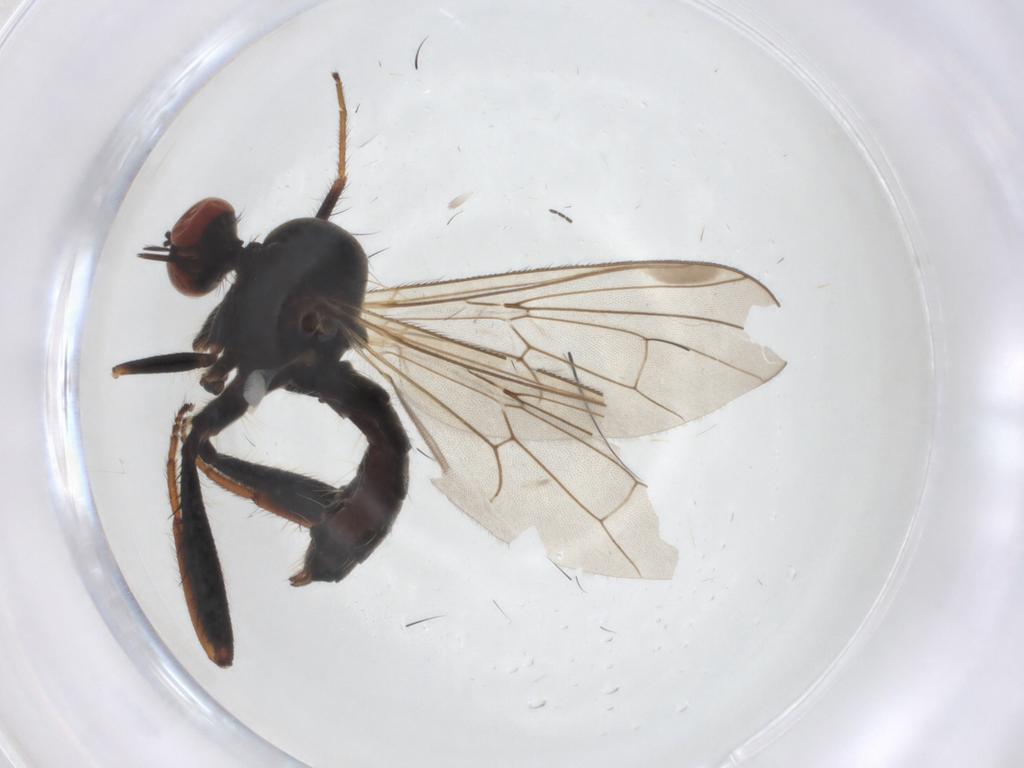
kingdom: Animalia
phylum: Arthropoda
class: Insecta
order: Diptera
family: Hybotidae
